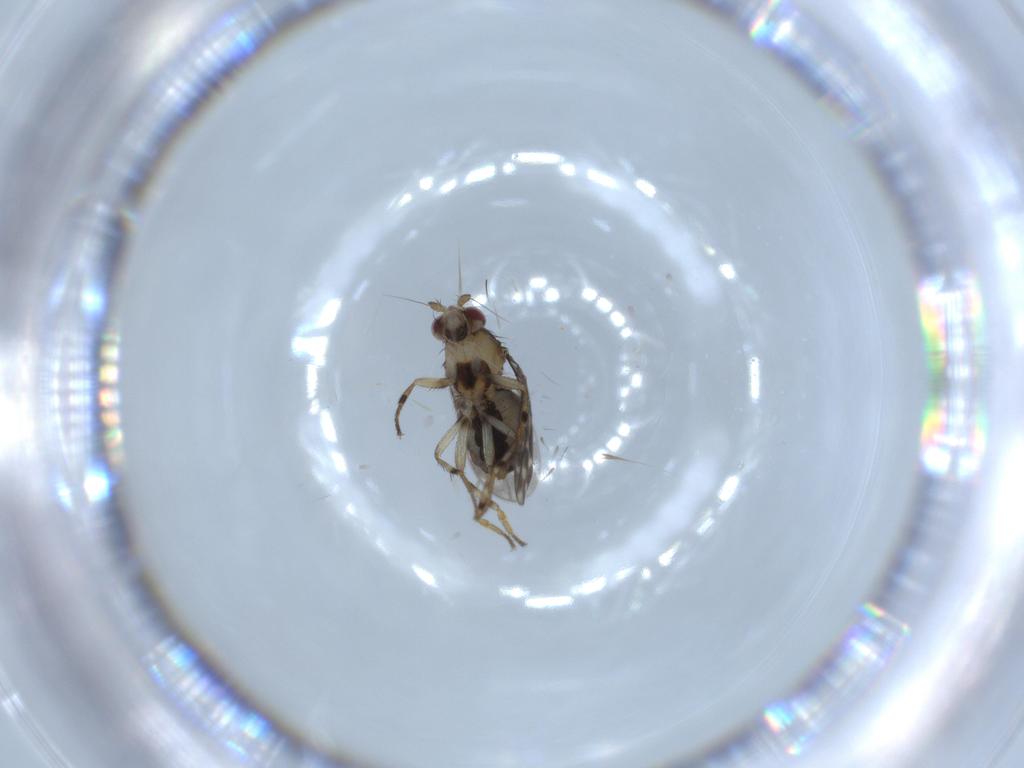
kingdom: Animalia
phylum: Arthropoda
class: Insecta
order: Diptera
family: Sphaeroceridae
